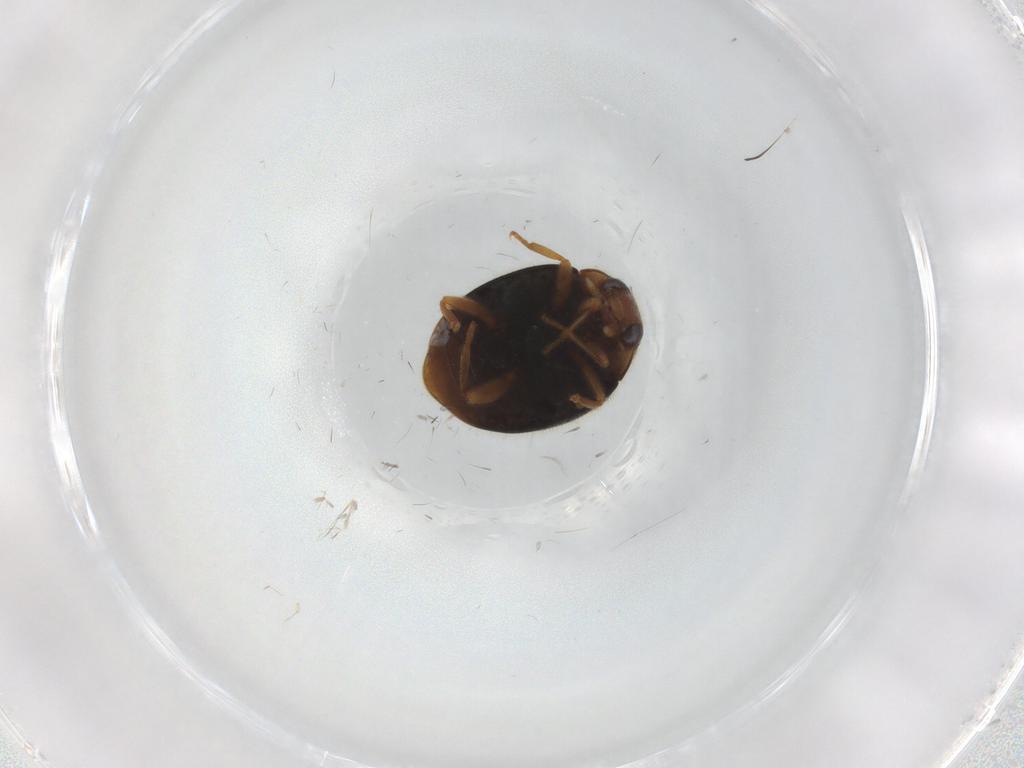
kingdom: Animalia
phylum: Arthropoda
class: Insecta
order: Coleoptera
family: Coccinellidae
